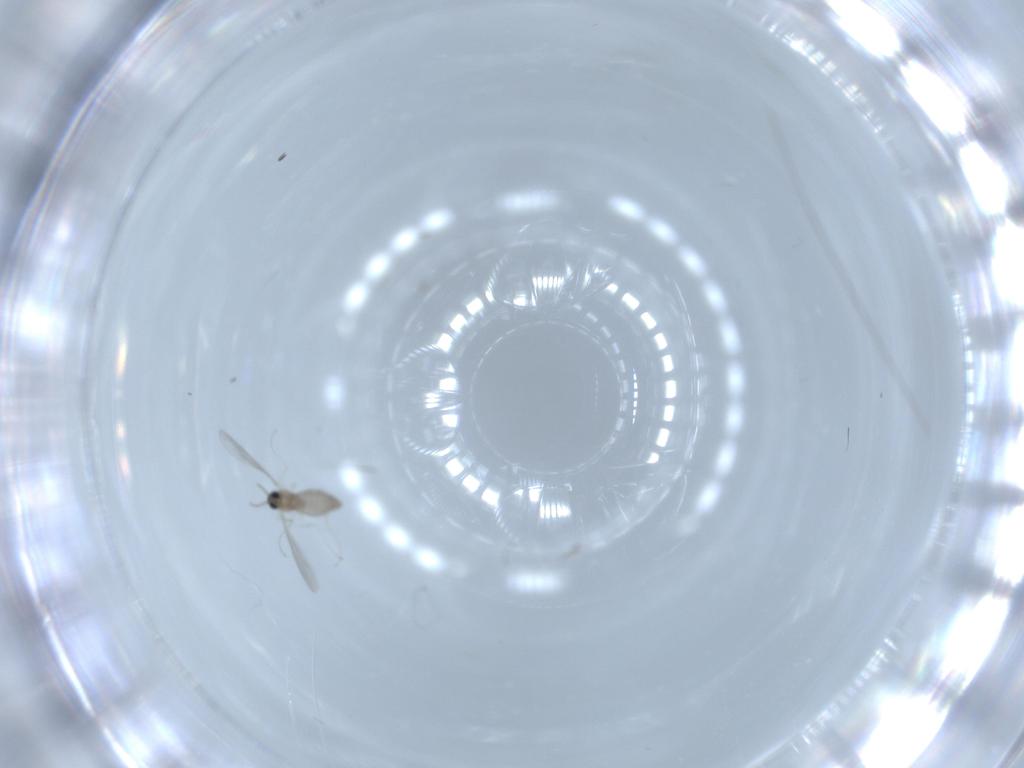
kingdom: Animalia
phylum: Arthropoda
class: Insecta
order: Diptera
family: Cecidomyiidae
